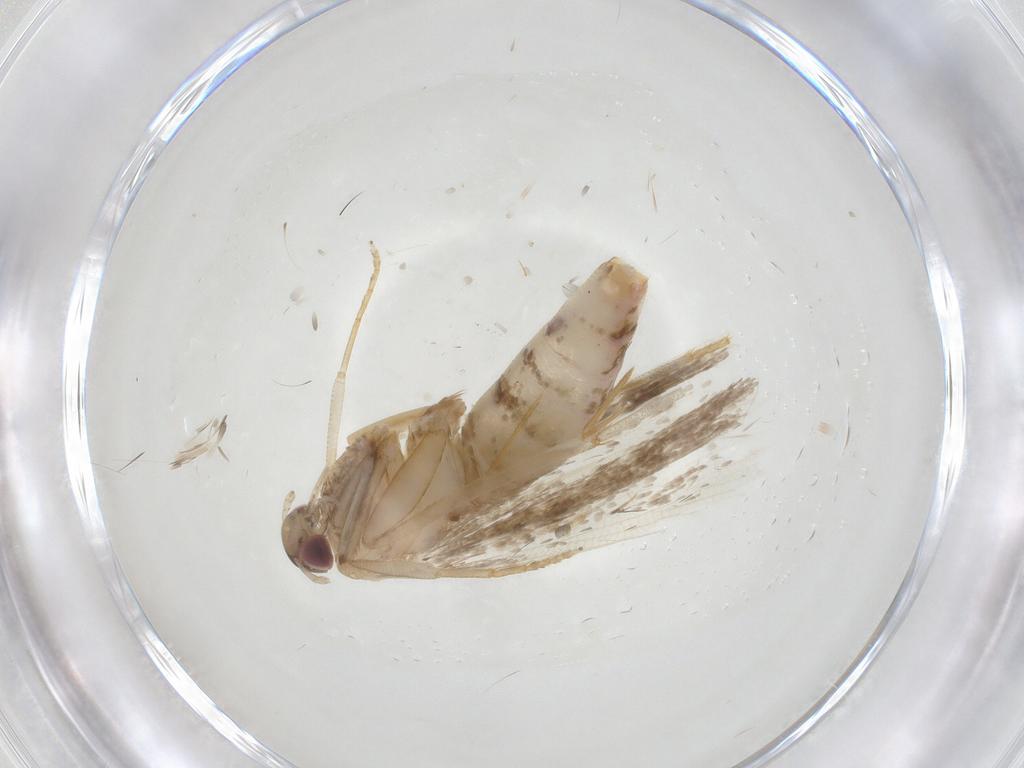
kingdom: Animalia
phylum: Arthropoda
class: Insecta
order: Lepidoptera
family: Gelechiidae
